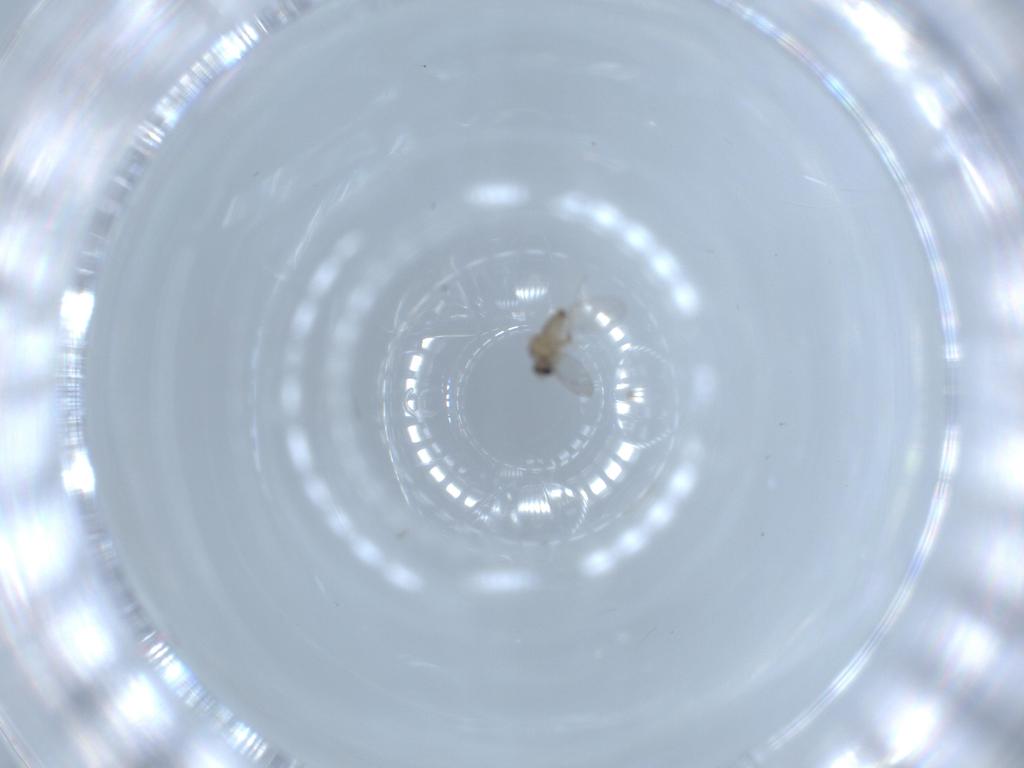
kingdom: Animalia
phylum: Arthropoda
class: Insecta
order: Diptera
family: Cecidomyiidae
